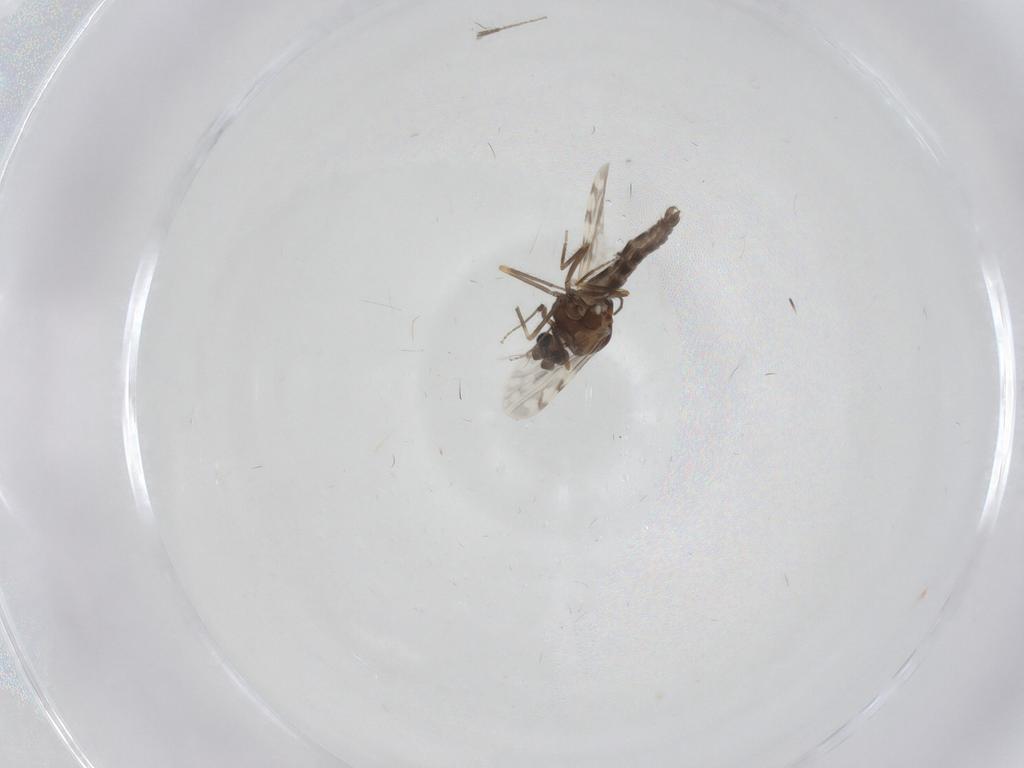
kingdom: Animalia
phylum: Arthropoda
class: Insecta
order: Diptera
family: Ceratopogonidae
